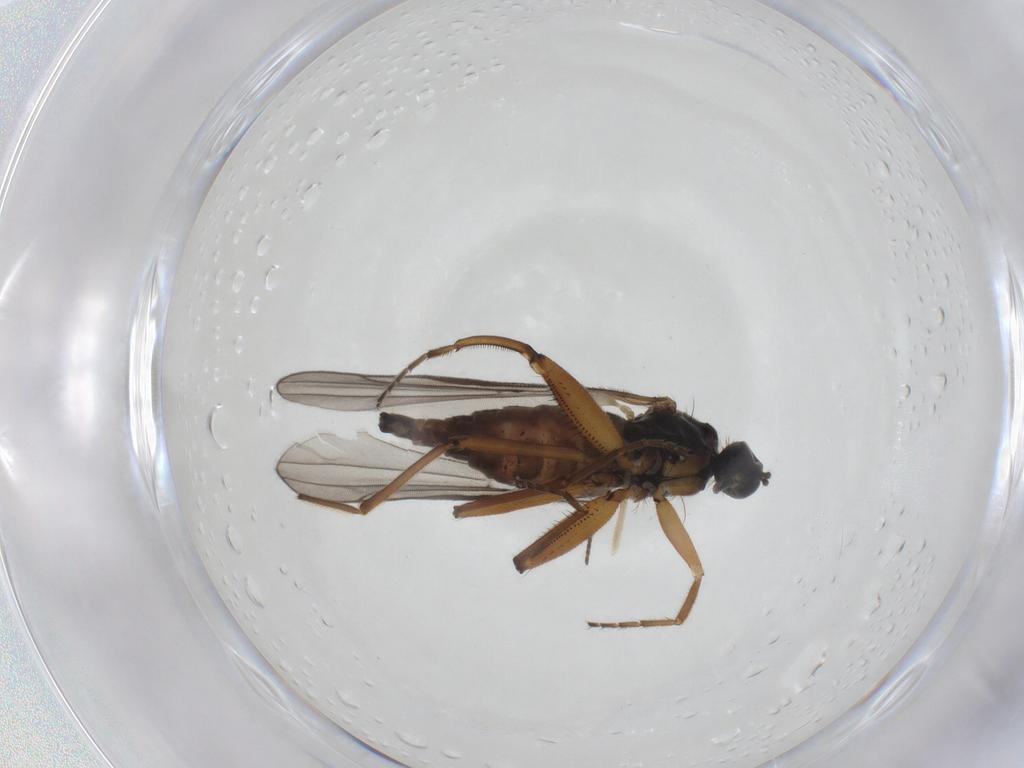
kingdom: Animalia
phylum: Arthropoda
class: Insecta
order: Diptera
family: Hybotidae
